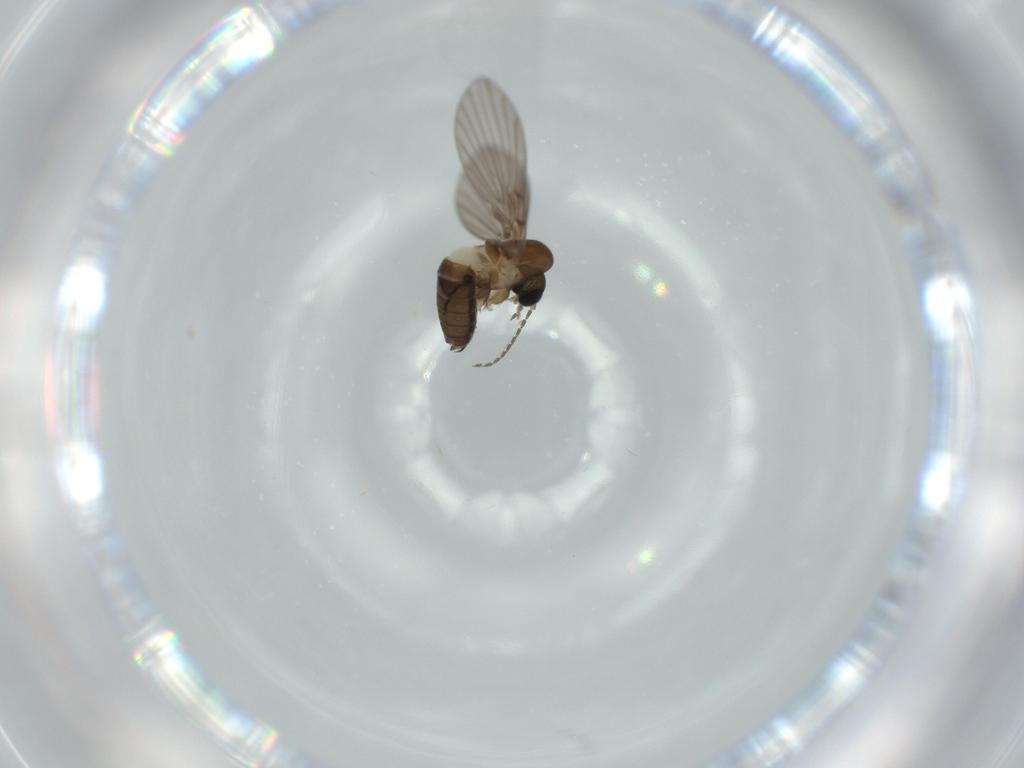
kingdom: Animalia
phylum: Arthropoda
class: Insecta
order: Diptera
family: Psychodidae
